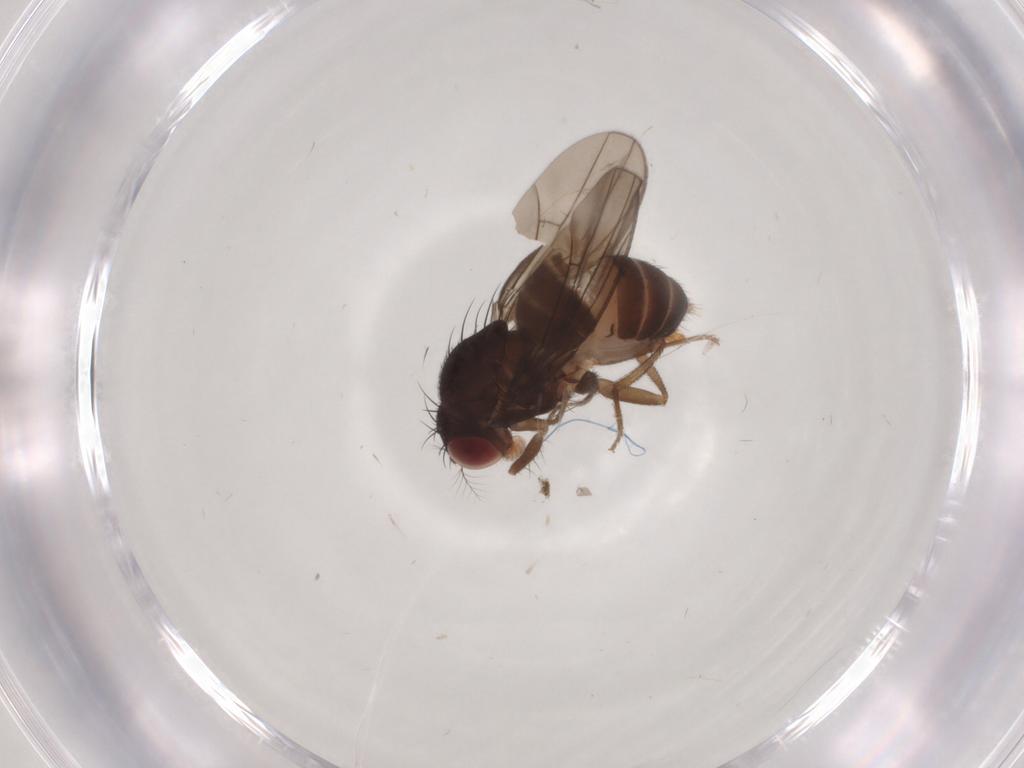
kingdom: Animalia
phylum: Arthropoda
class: Insecta
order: Diptera
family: Drosophilidae
